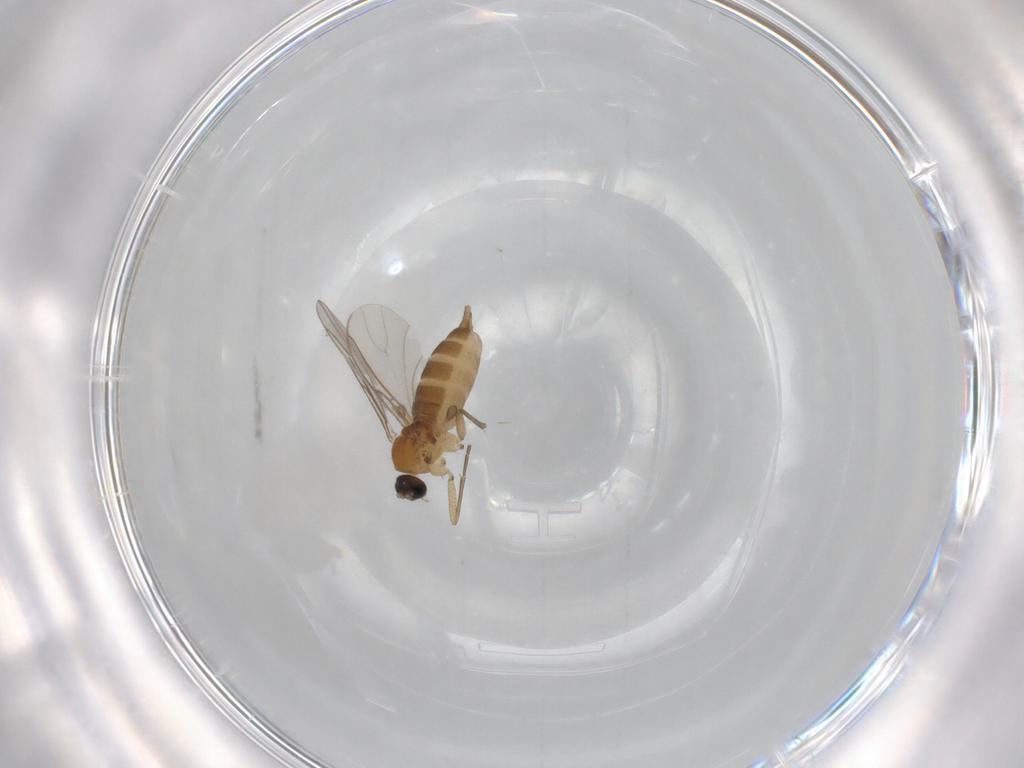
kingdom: Animalia
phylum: Arthropoda
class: Insecta
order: Diptera
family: Sciaridae
